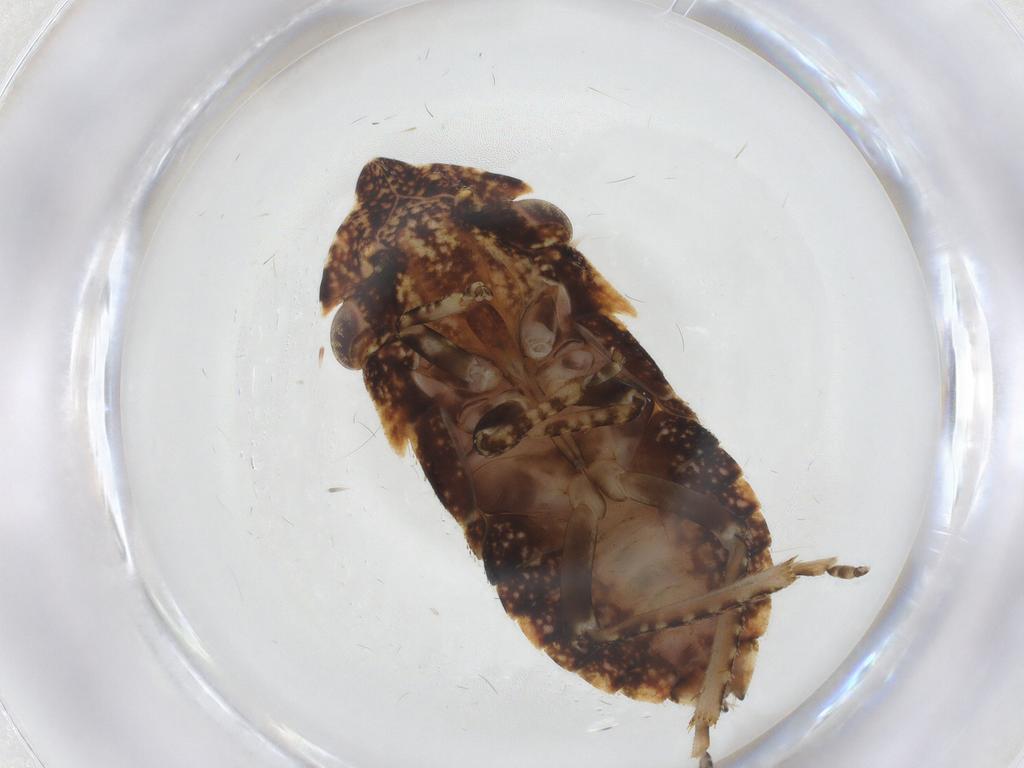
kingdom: Animalia
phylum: Arthropoda
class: Insecta
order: Hemiptera
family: Cicadellidae
